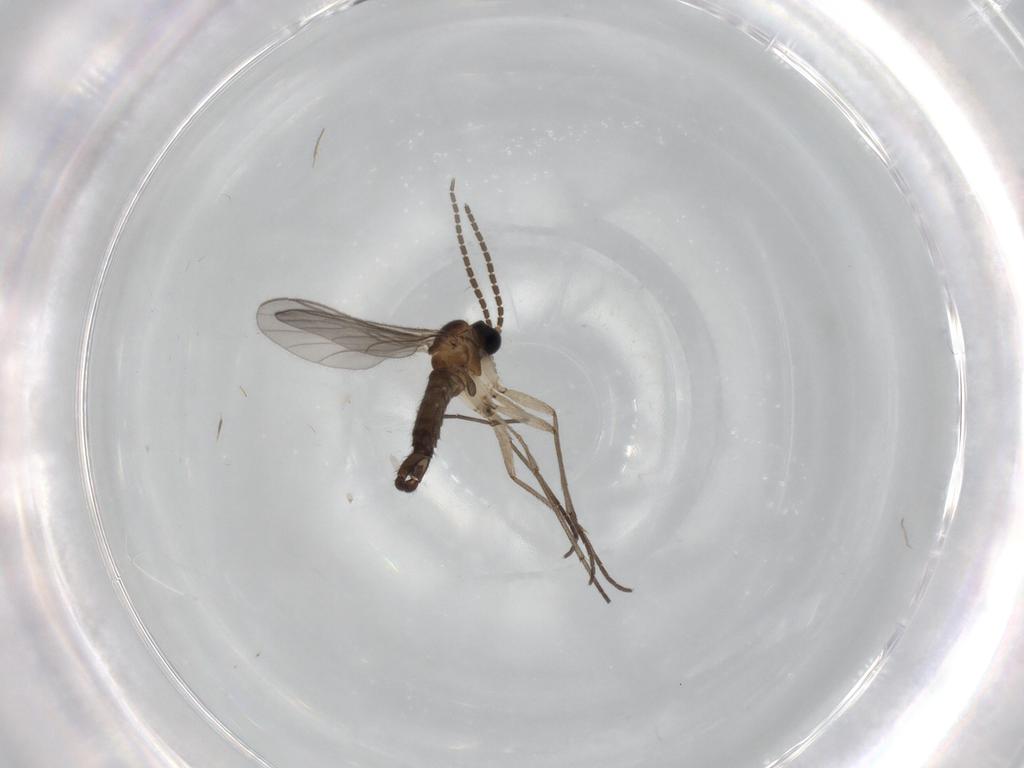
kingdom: Animalia
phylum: Arthropoda
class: Insecta
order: Diptera
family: Sciaridae
